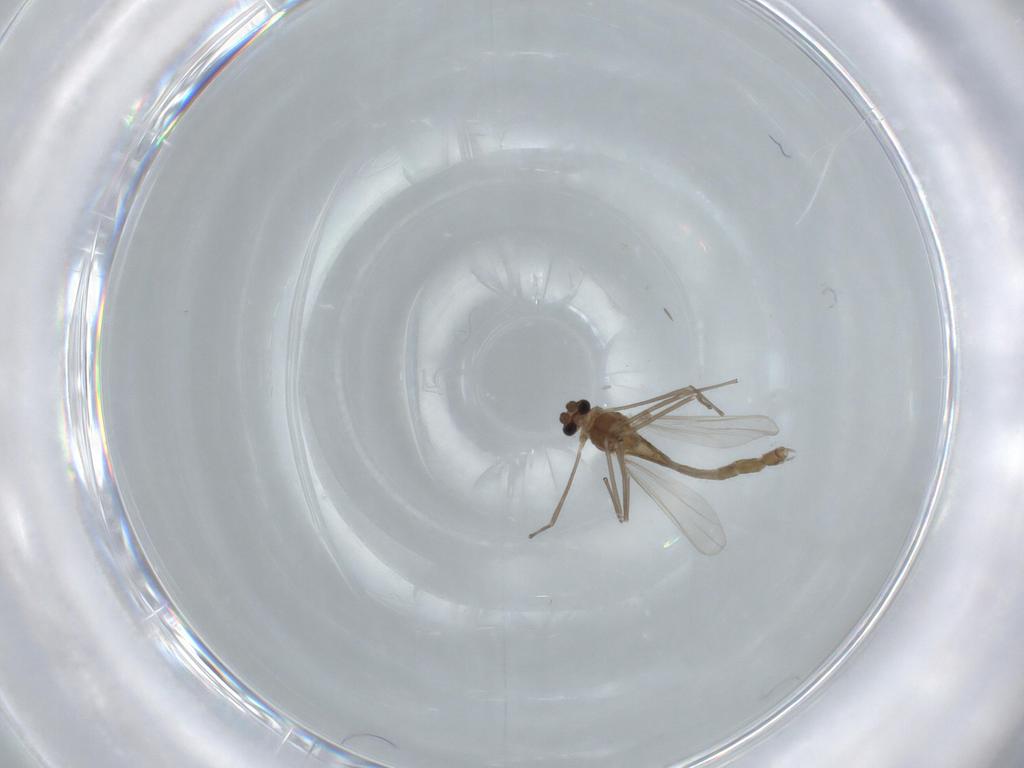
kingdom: Animalia
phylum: Arthropoda
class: Insecta
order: Diptera
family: Chironomidae
